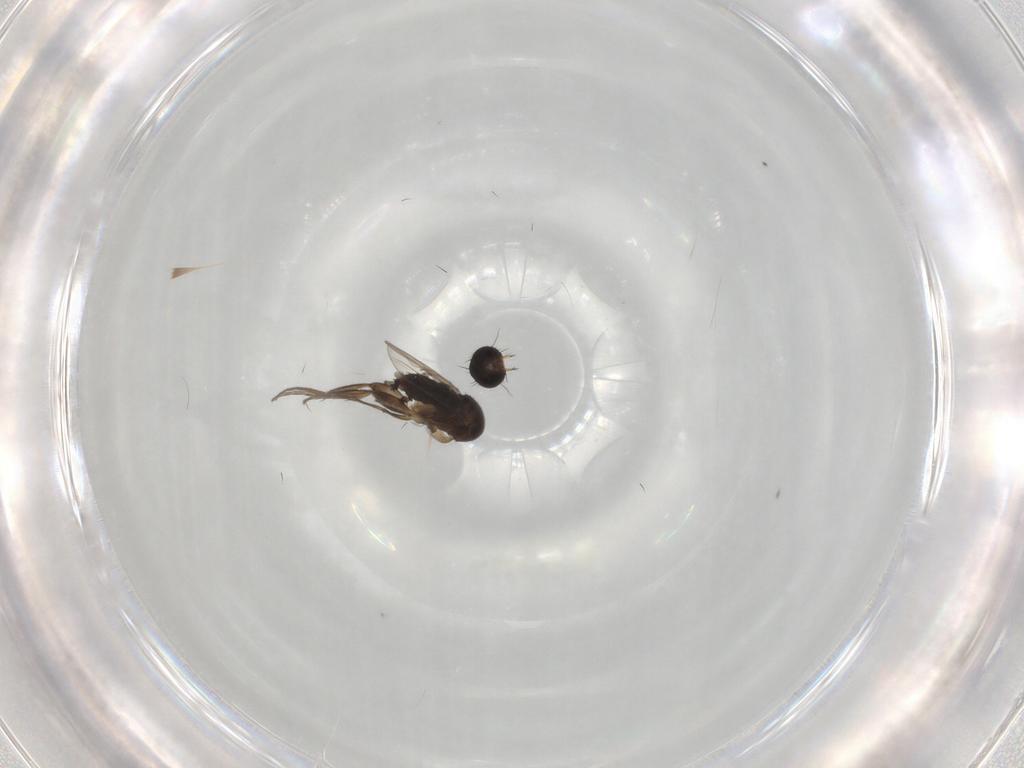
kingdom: Animalia
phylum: Arthropoda
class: Insecta
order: Diptera
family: Phoridae
